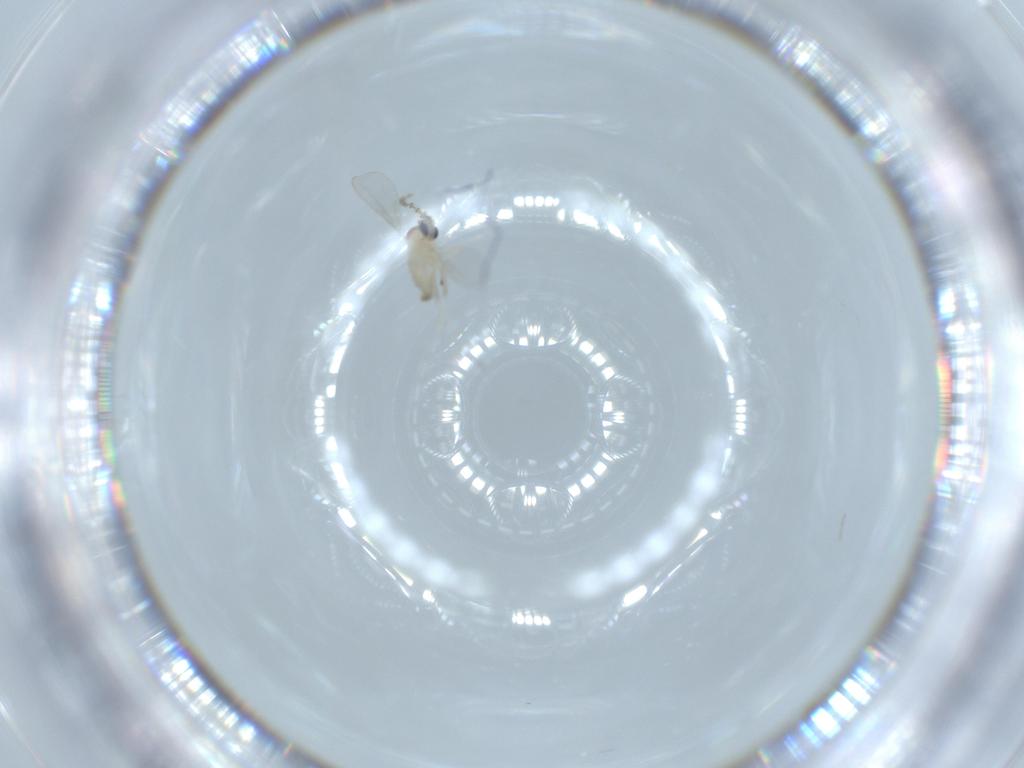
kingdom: Animalia
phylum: Arthropoda
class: Insecta
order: Diptera
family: Cecidomyiidae
